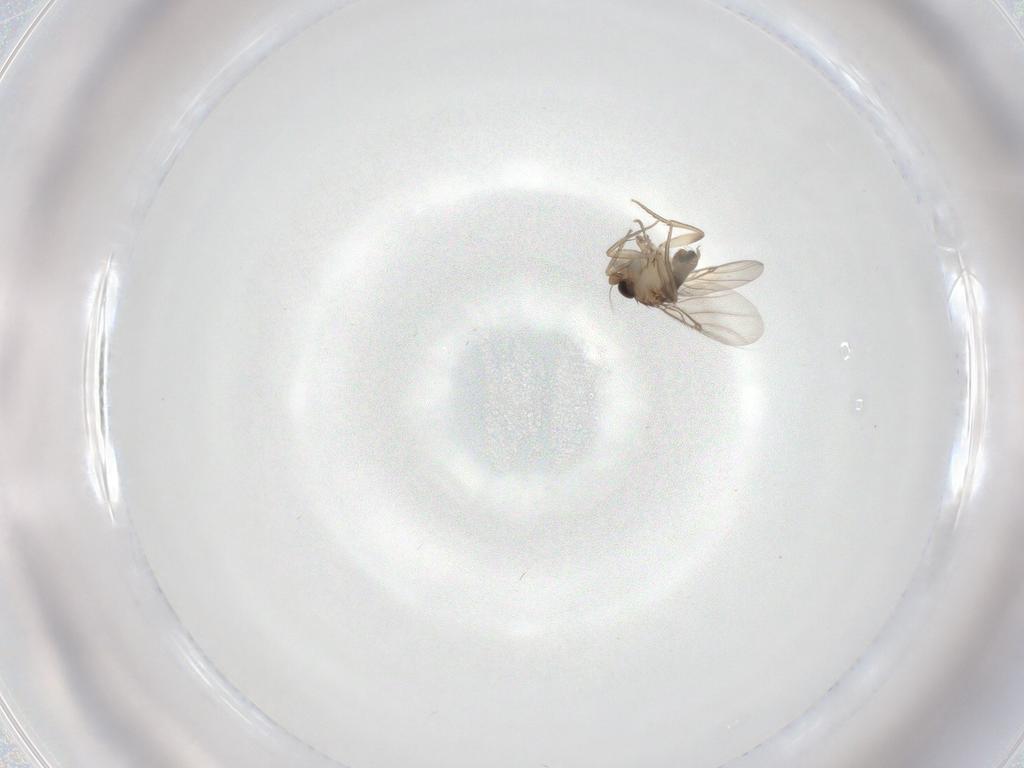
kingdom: Animalia
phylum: Arthropoda
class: Insecta
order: Diptera
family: Phoridae
